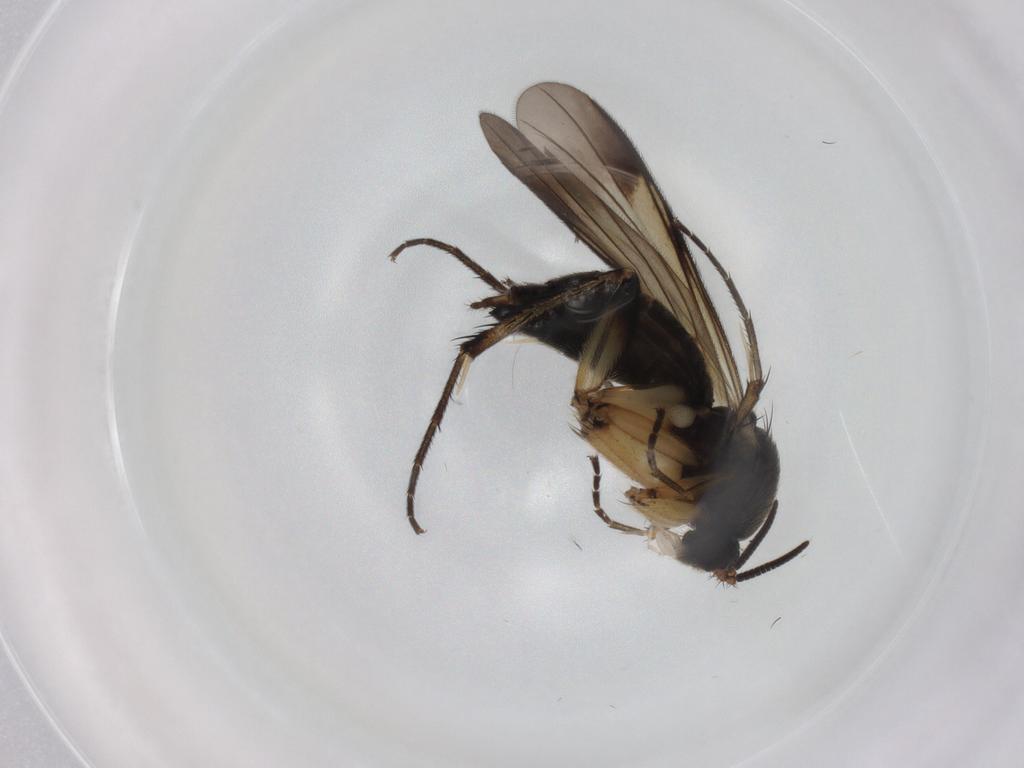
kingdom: Animalia
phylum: Arthropoda
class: Insecta
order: Diptera
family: Mycetophilidae
